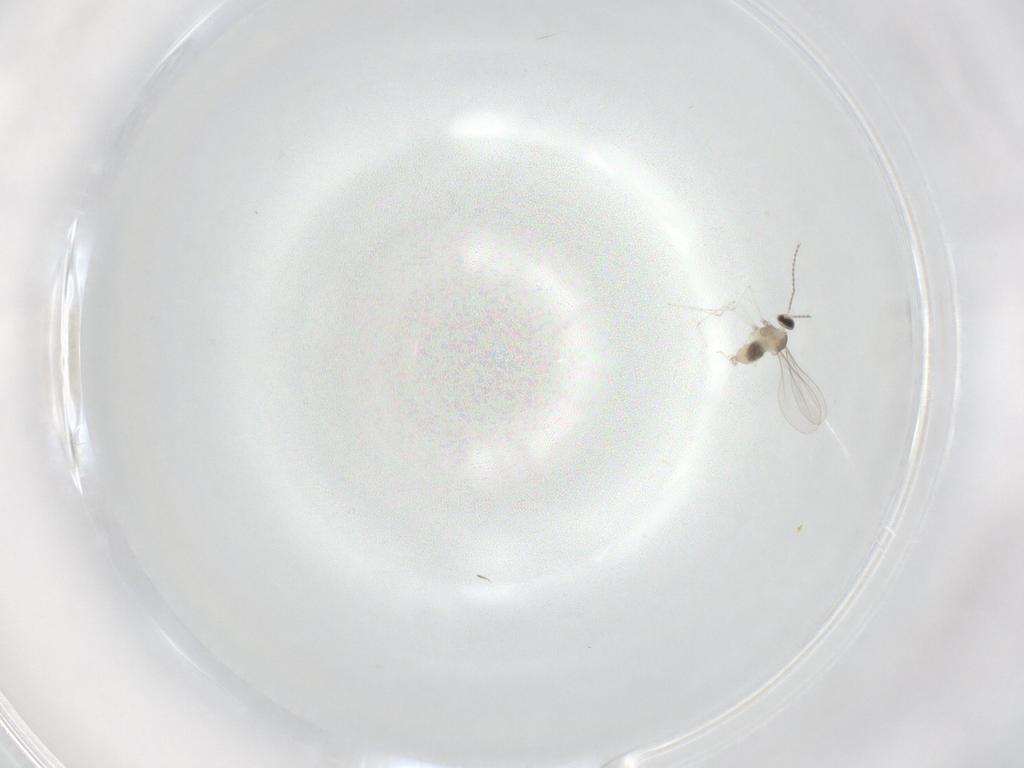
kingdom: Animalia
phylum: Arthropoda
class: Insecta
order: Diptera
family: Cecidomyiidae
